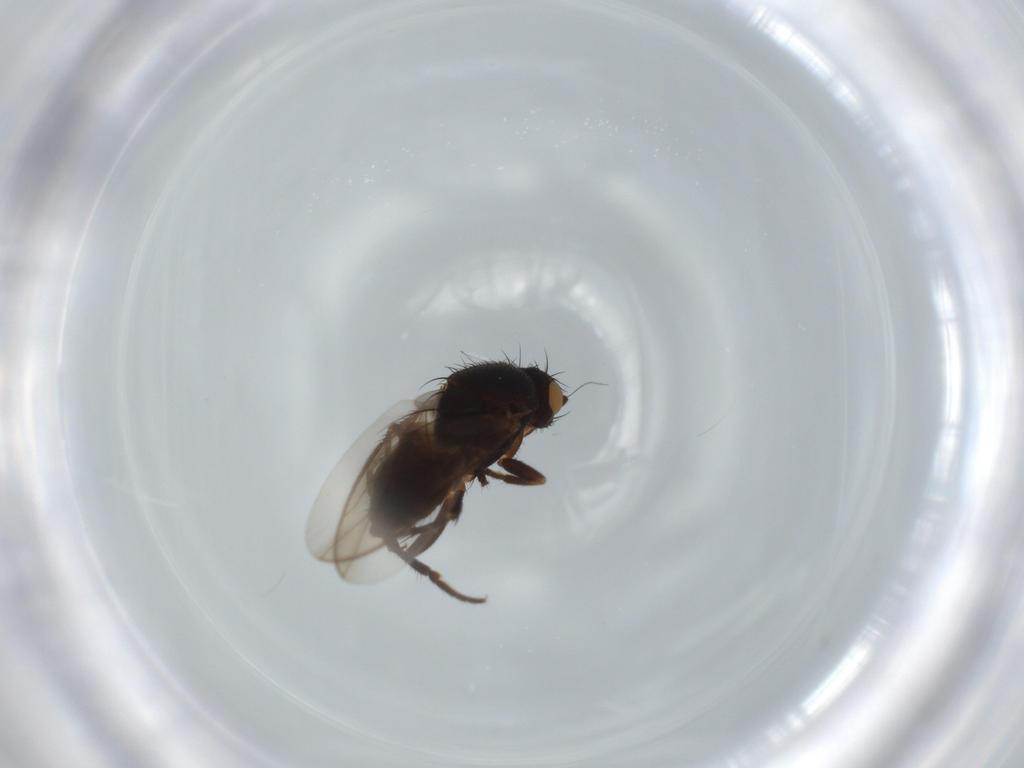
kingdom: Animalia
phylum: Arthropoda
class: Insecta
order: Diptera
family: Sphaeroceridae
